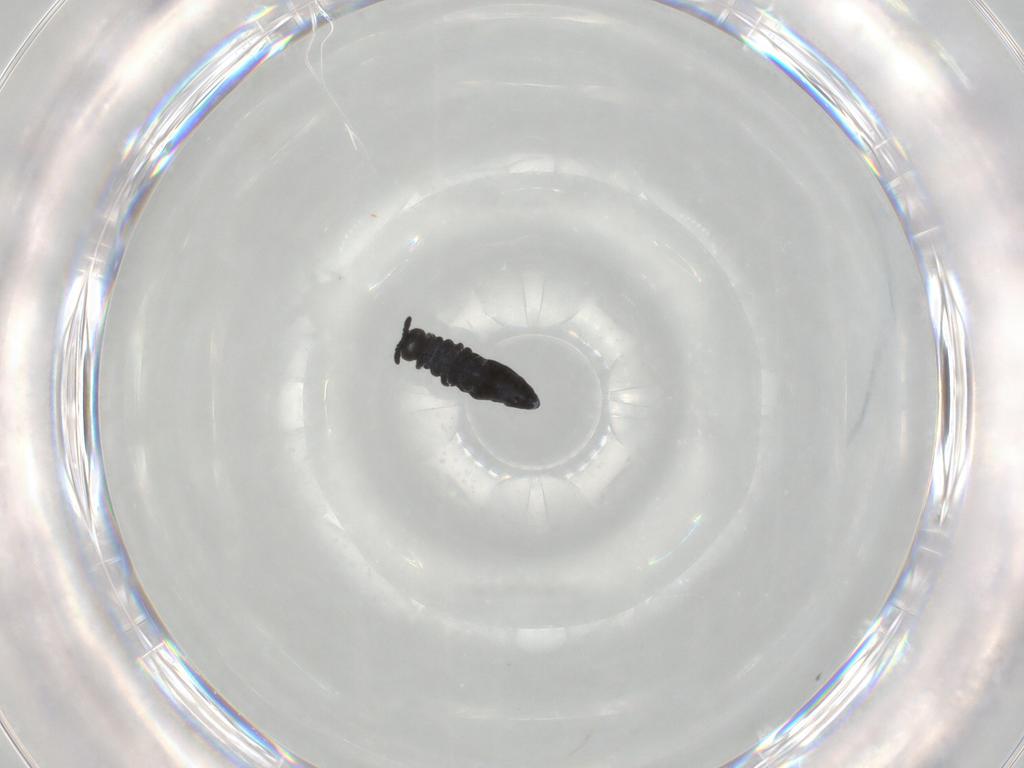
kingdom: Animalia
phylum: Arthropoda
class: Collembola
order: Poduromorpha
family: Hypogastruridae
